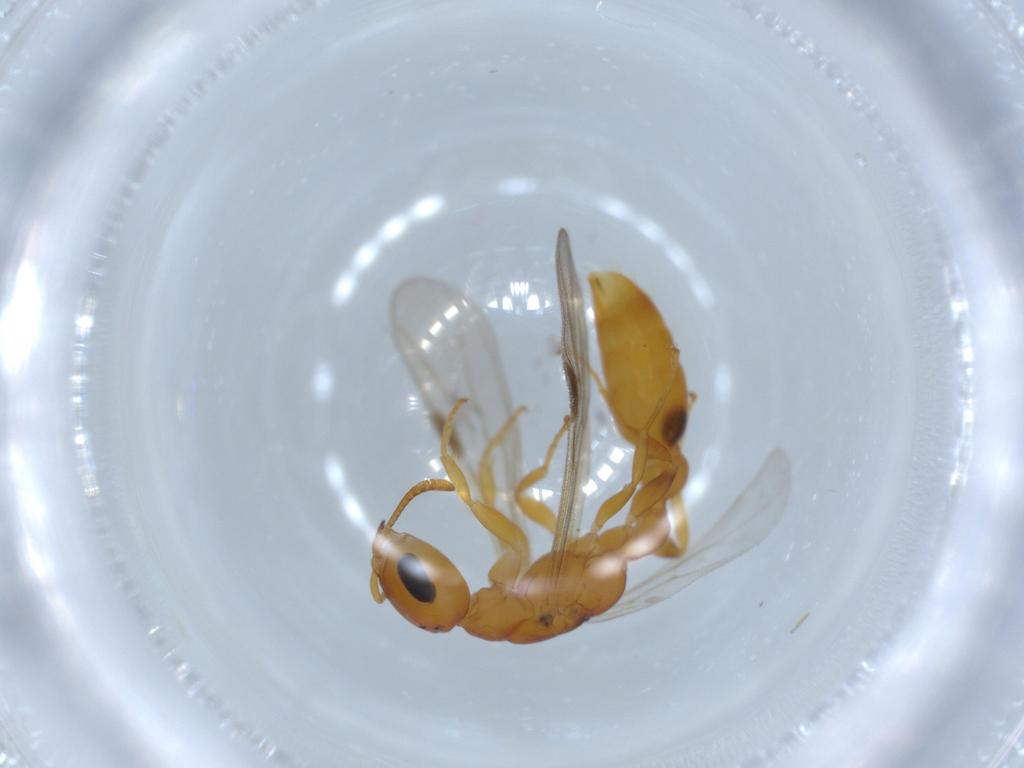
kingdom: Animalia
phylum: Arthropoda
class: Insecta
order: Hymenoptera
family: Formicidae
